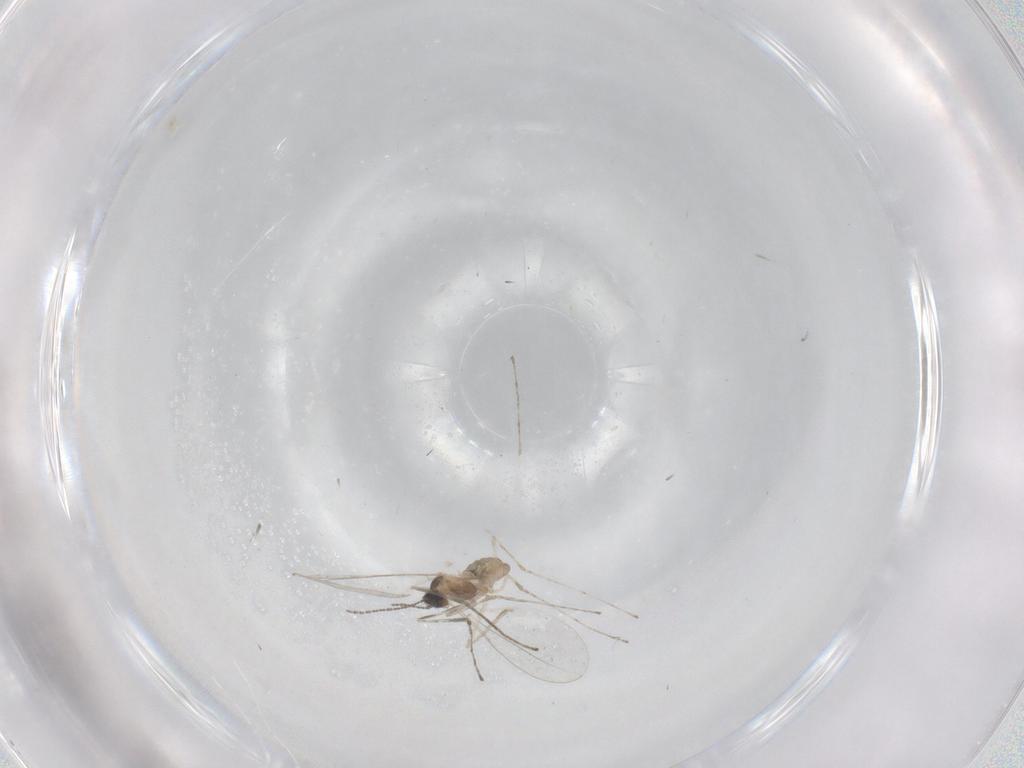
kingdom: Animalia
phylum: Arthropoda
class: Insecta
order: Diptera
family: Cecidomyiidae
